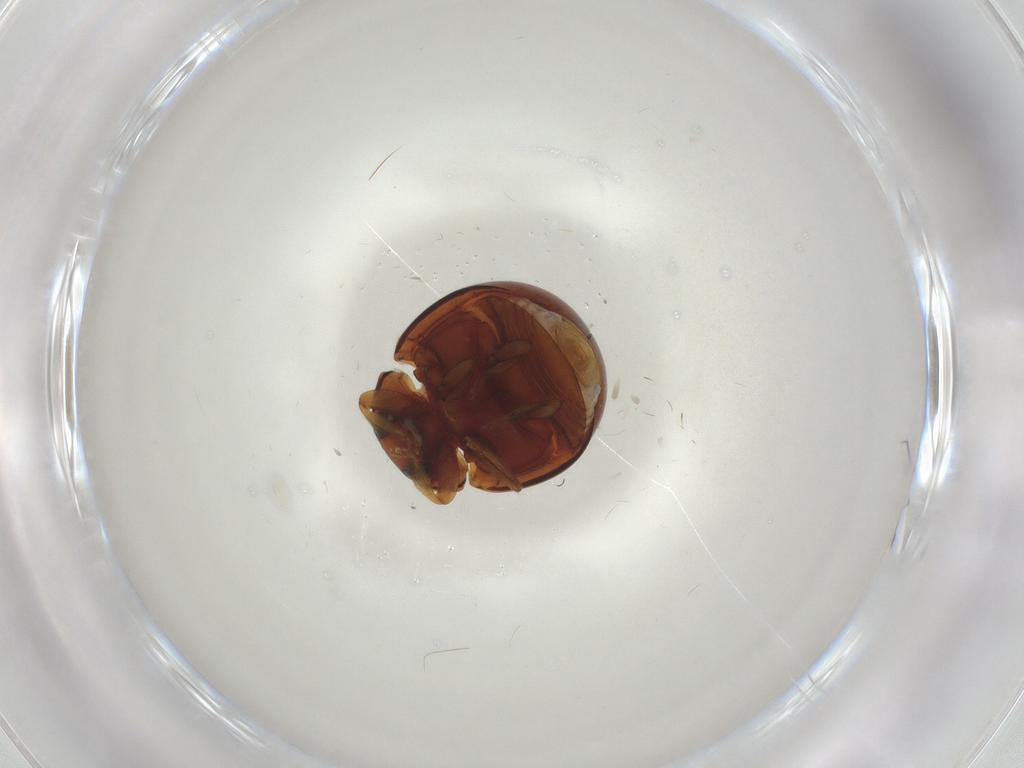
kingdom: Animalia
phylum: Arthropoda
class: Insecta
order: Coleoptera
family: Coccinellidae
